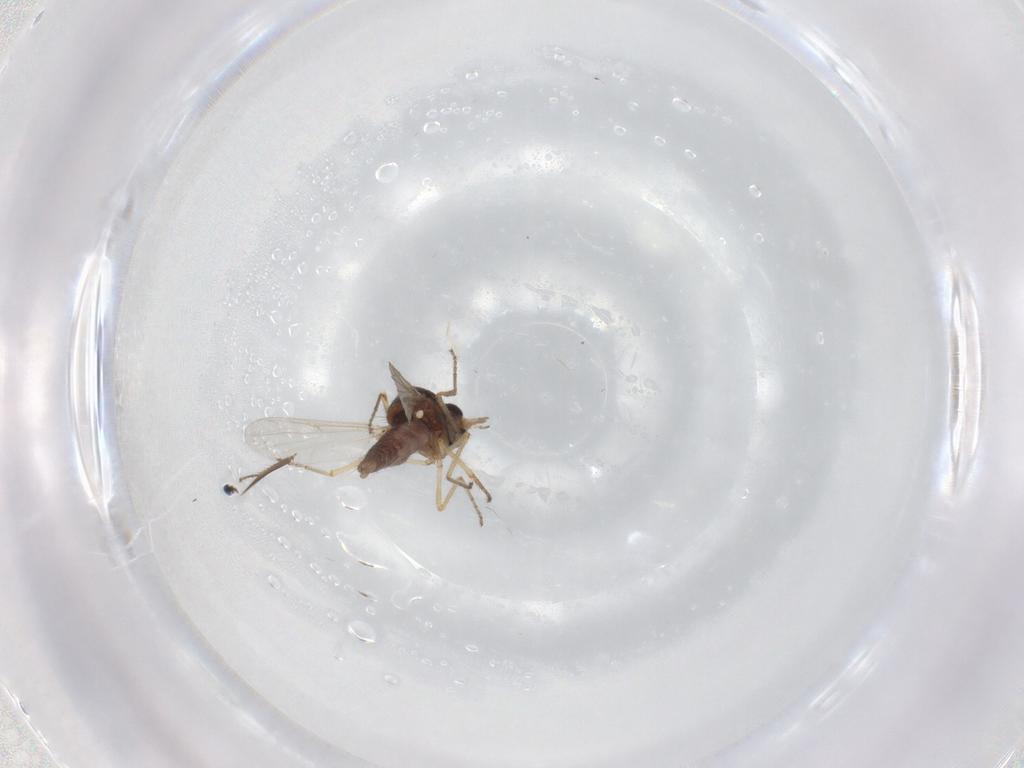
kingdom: Animalia
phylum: Arthropoda
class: Insecta
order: Diptera
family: Ceratopogonidae
